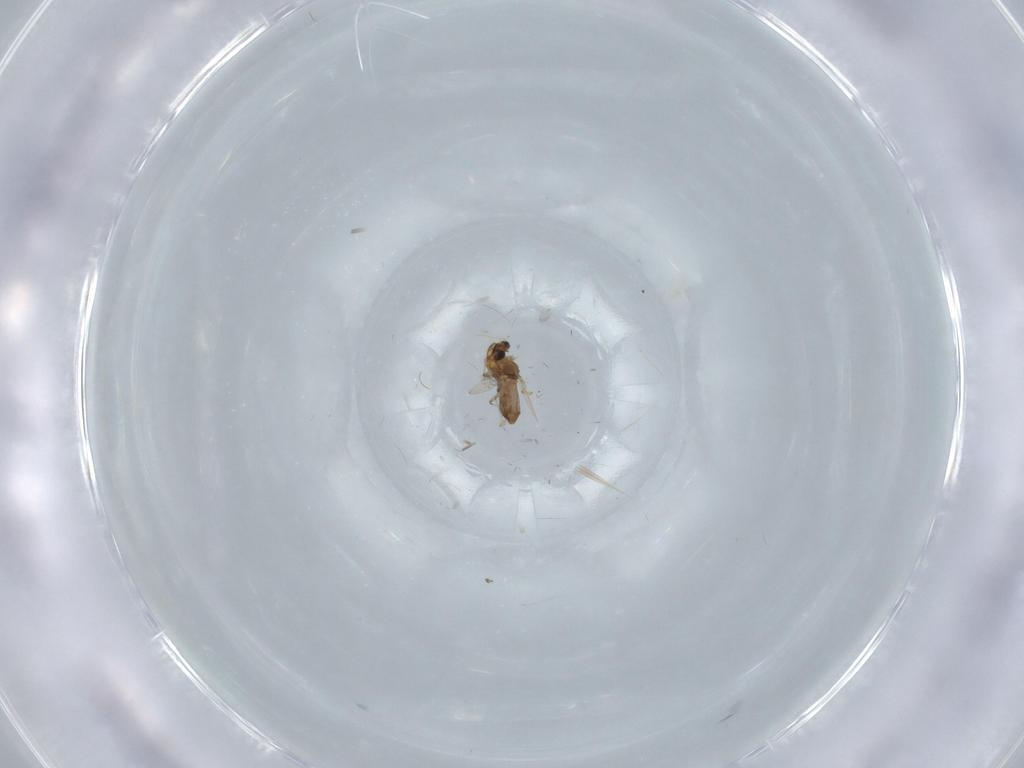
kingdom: Animalia
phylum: Arthropoda
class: Insecta
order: Diptera
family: Chironomidae
